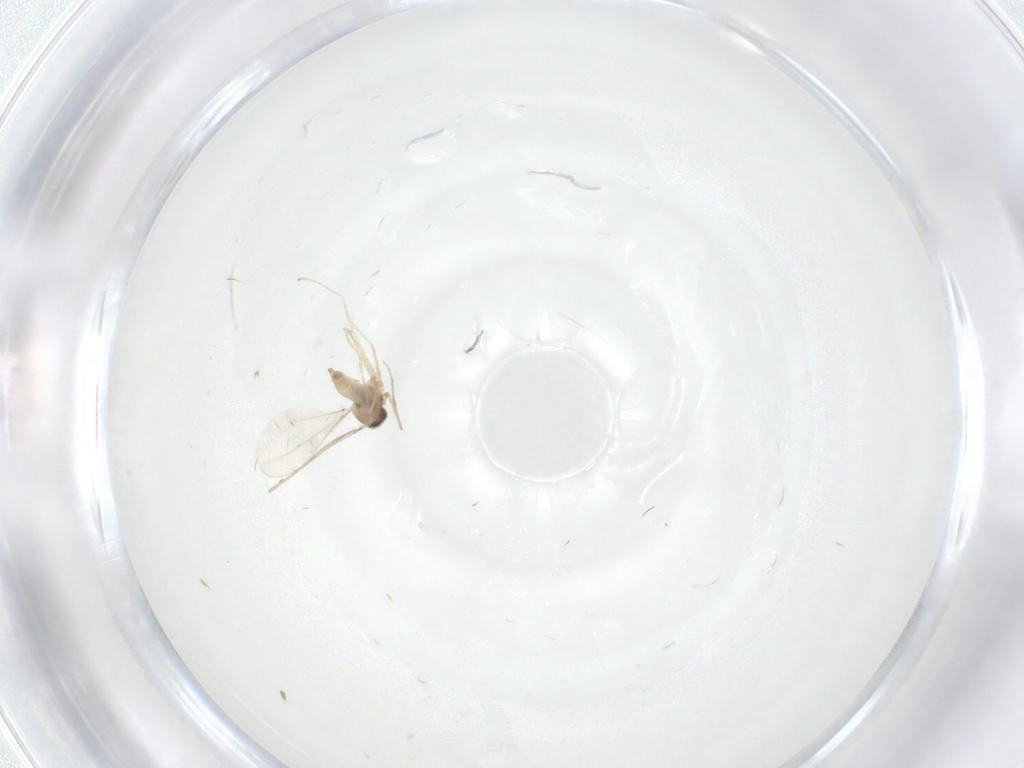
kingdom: Animalia
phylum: Arthropoda
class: Insecta
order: Diptera
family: Cecidomyiidae
